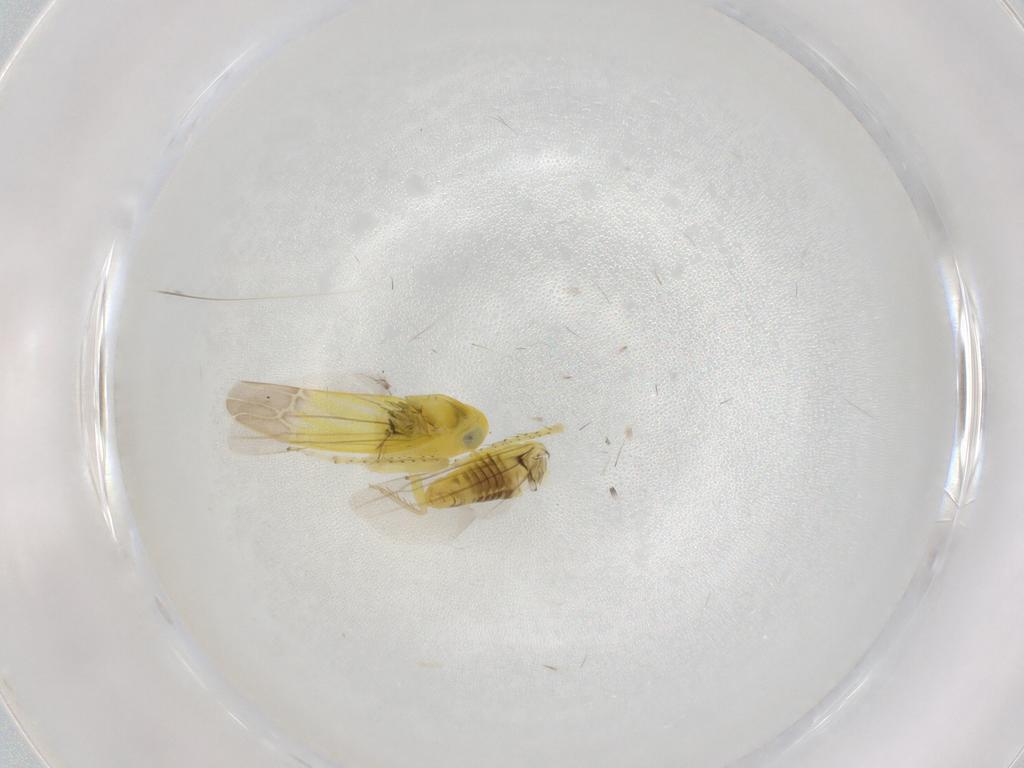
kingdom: Animalia
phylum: Arthropoda
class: Insecta
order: Hemiptera
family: Cicadellidae
